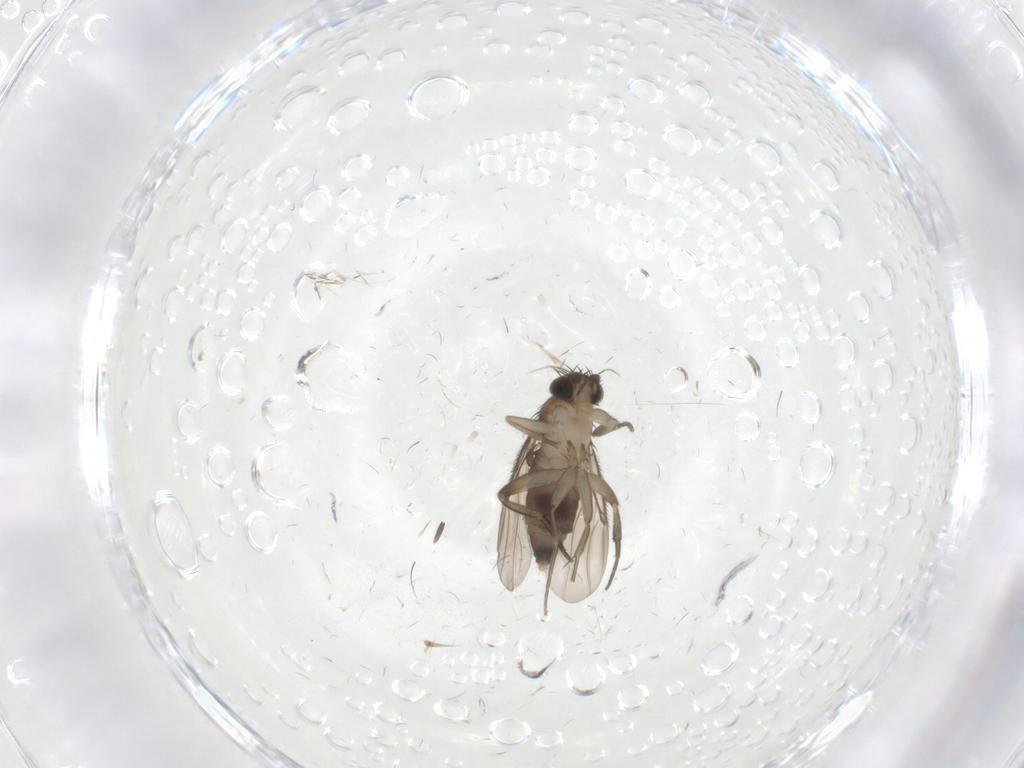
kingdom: Animalia
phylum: Arthropoda
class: Insecta
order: Diptera
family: Phoridae
